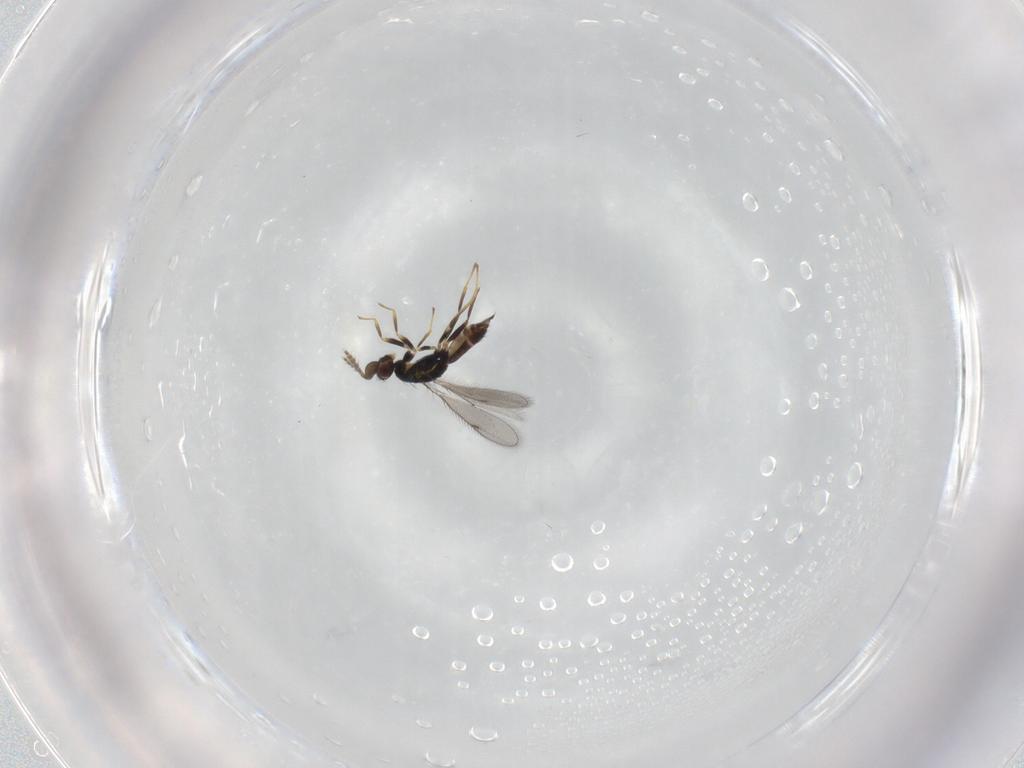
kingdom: Animalia
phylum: Arthropoda
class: Insecta
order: Hymenoptera
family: Eulophidae
